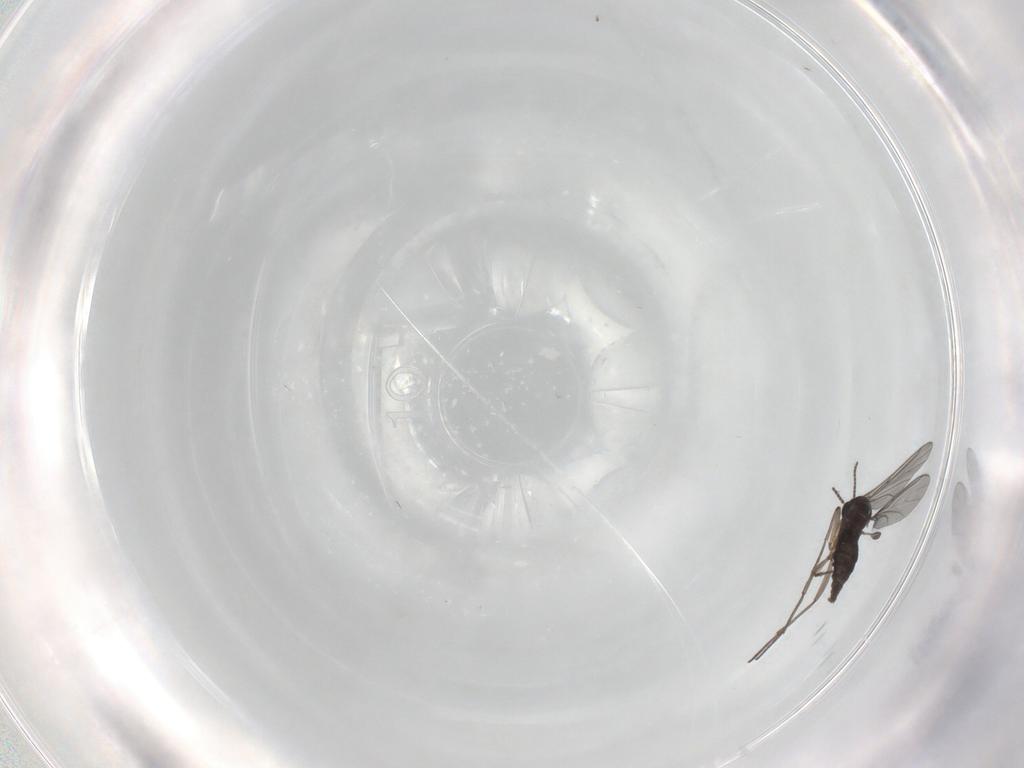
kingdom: Animalia
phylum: Arthropoda
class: Insecta
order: Diptera
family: Sciaridae
